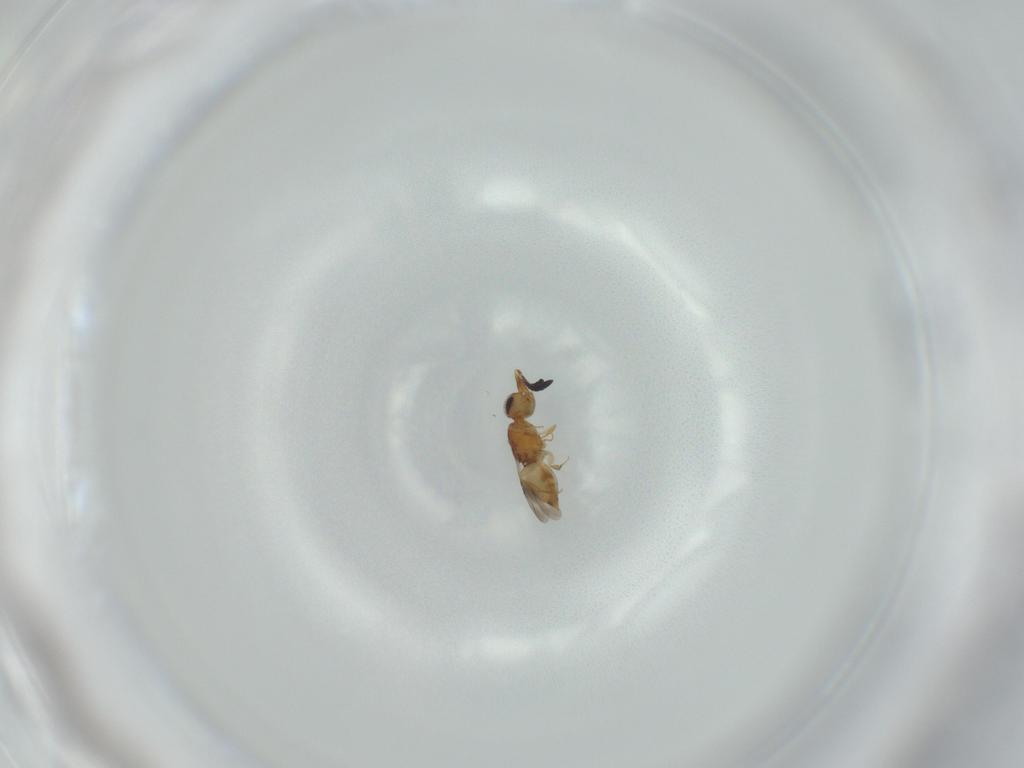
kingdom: Animalia
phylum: Arthropoda
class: Insecta
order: Hymenoptera
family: Ceraphronidae
